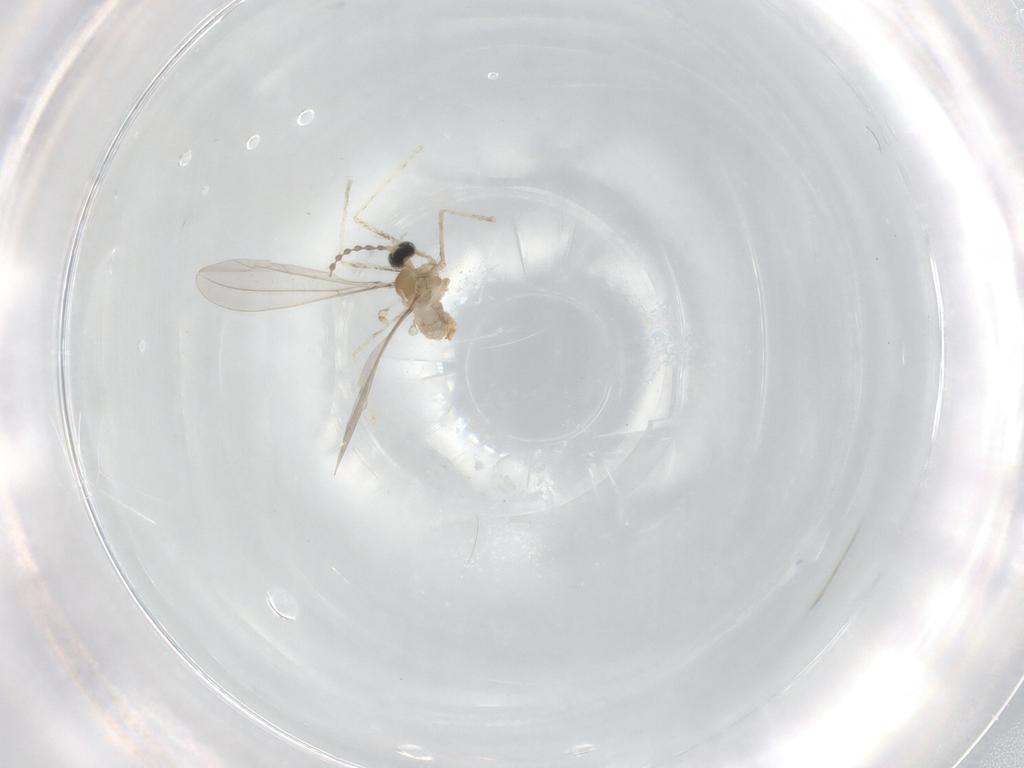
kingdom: Animalia
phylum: Arthropoda
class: Insecta
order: Diptera
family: Cecidomyiidae
